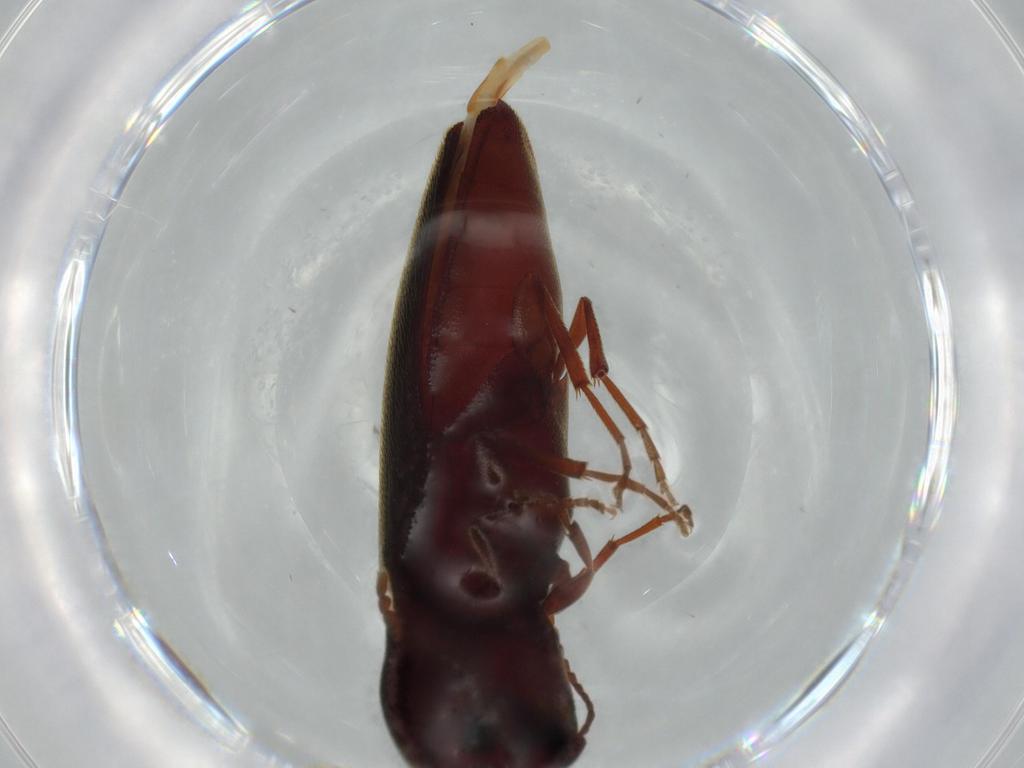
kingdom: Animalia
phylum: Arthropoda
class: Insecta
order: Coleoptera
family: Eucnemidae
